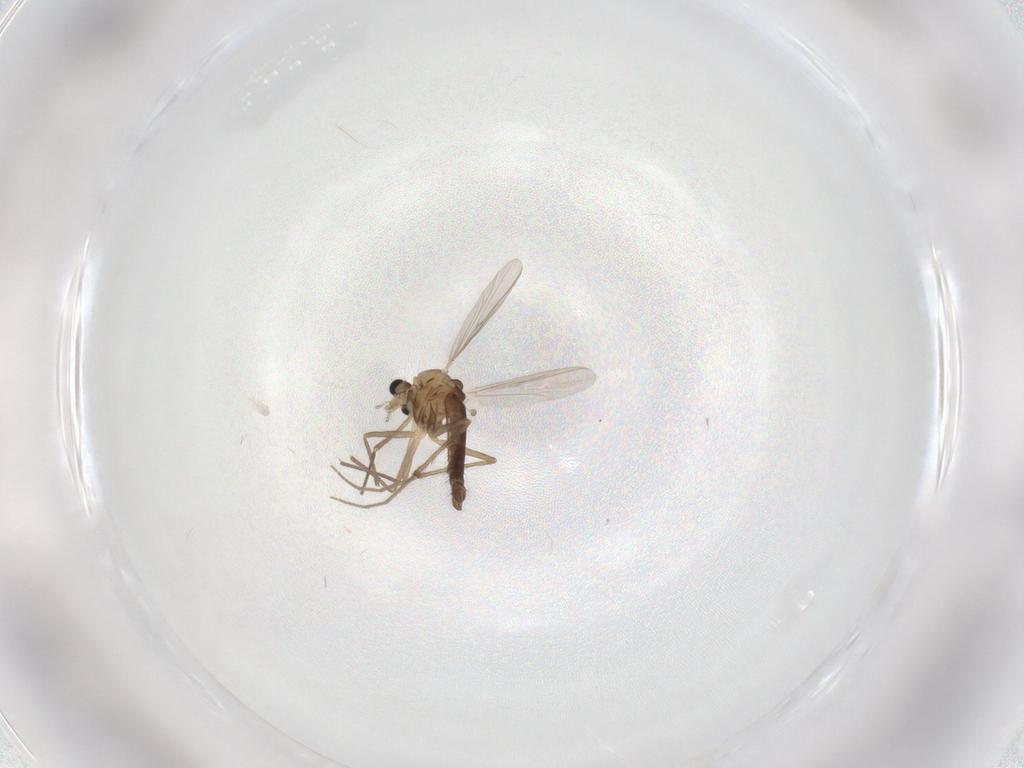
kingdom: Animalia
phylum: Arthropoda
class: Insecta
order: Diptera
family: Chironomidae
